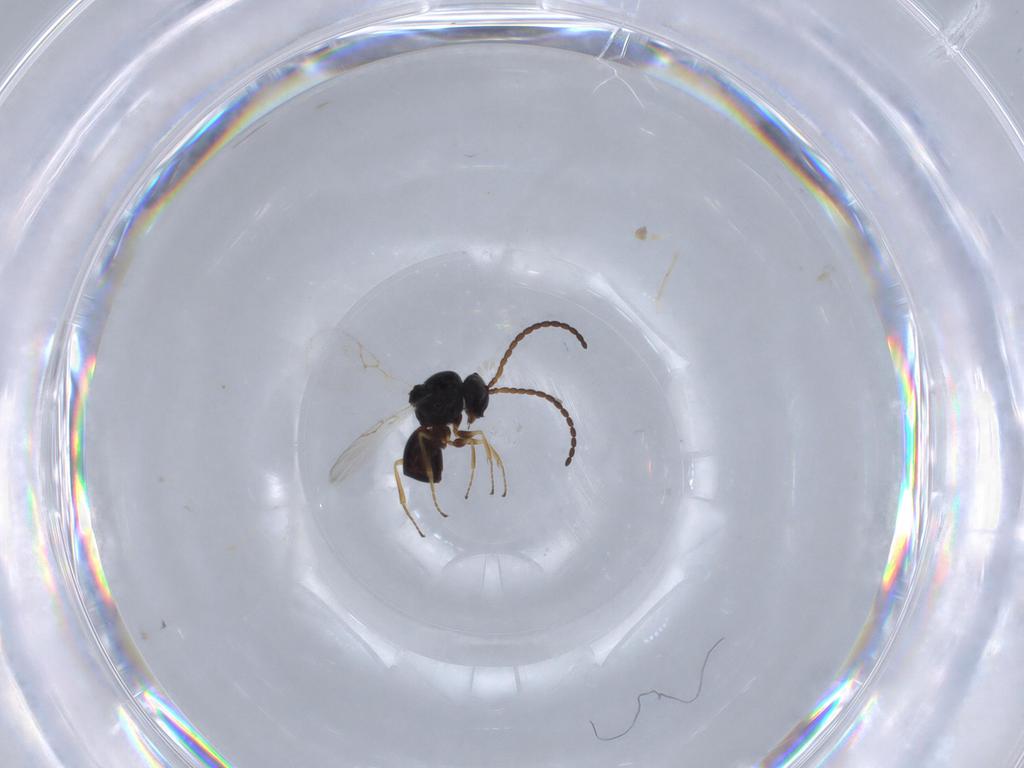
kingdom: Animalia
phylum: Arthropoda
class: Insecta
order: Hymenoptera
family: Figitidae
